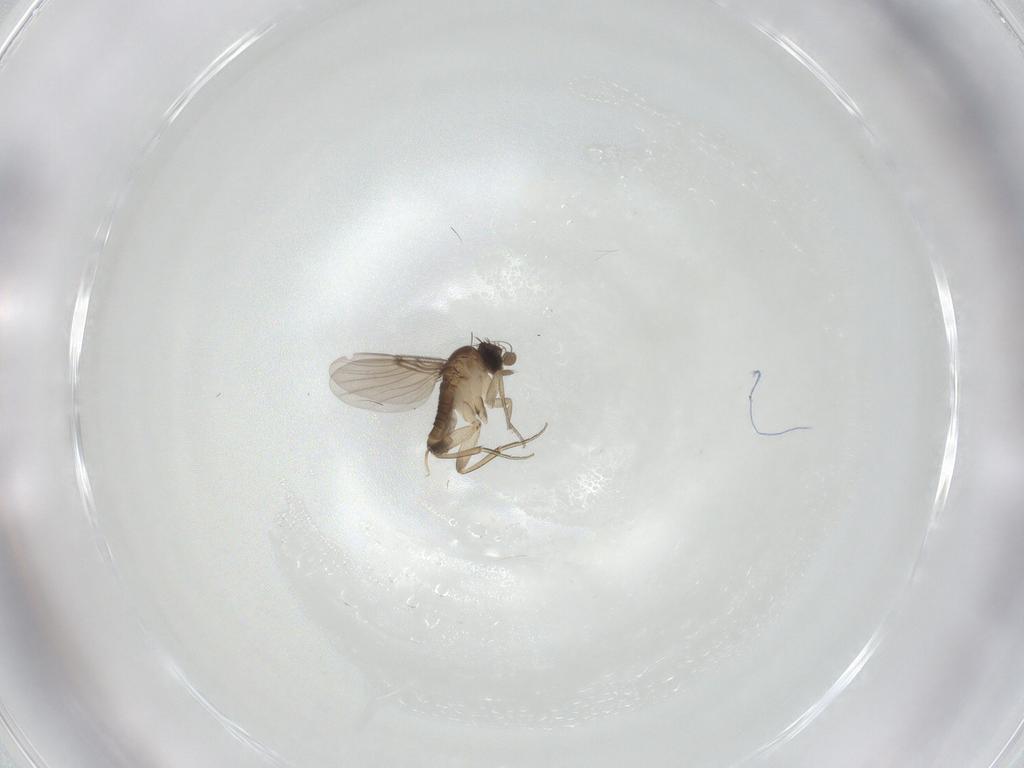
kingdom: Animalia
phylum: Arthropoda
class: Insecta
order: Diptera
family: Phoridae
